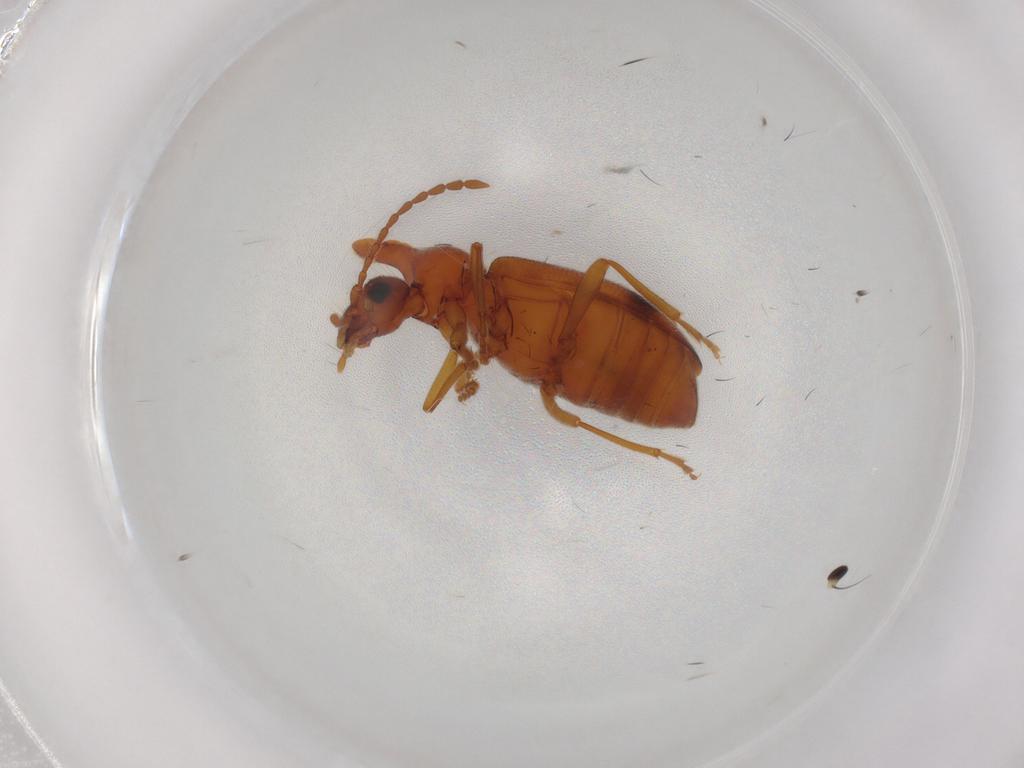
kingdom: Animalia
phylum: Arthropoda
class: Insecta
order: Coleoptera
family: Anthicidae
